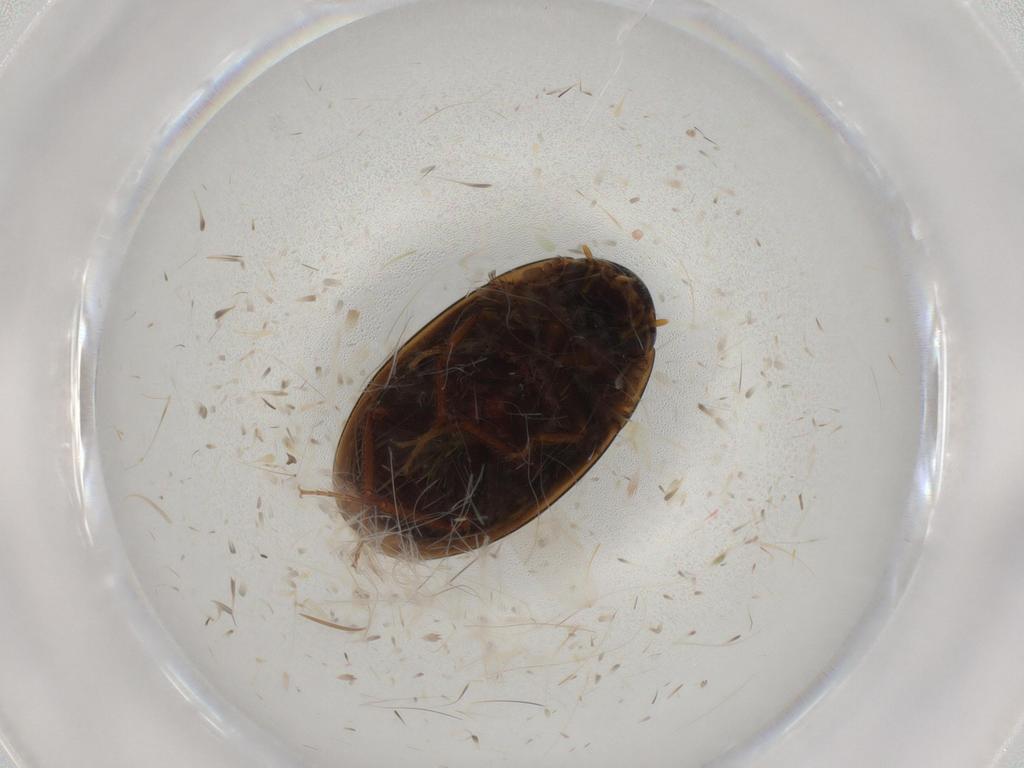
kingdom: Animalia
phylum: Arthropoda
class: Insecta
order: Coleoptera
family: Hydrophilidae
